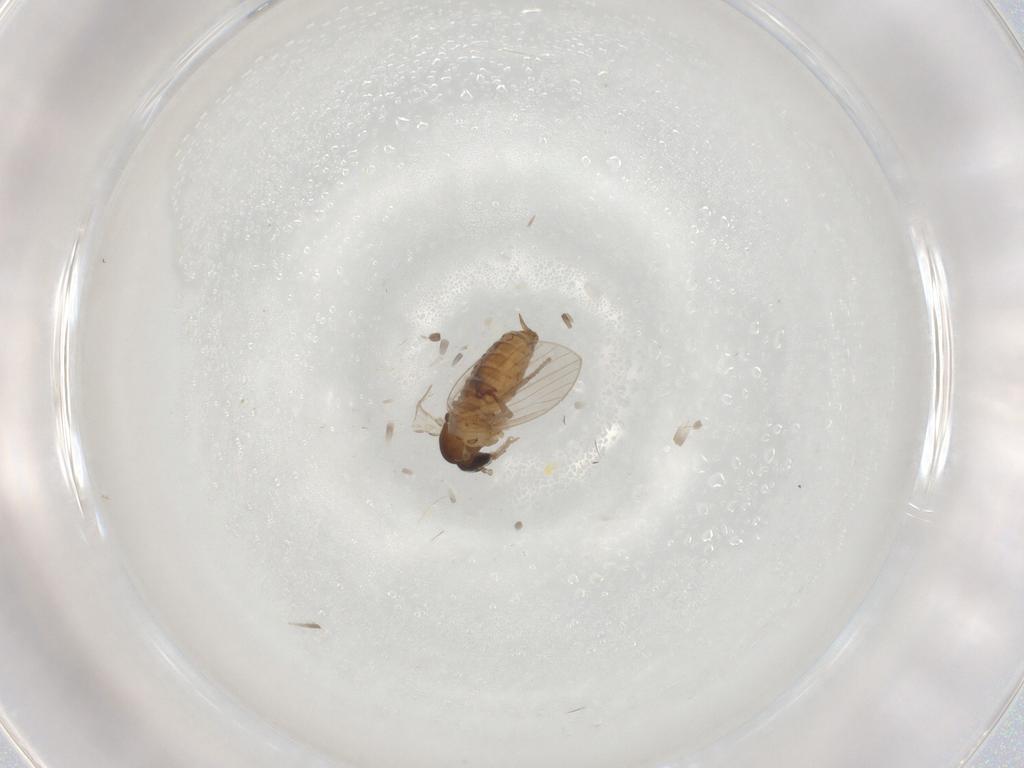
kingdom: Animalia
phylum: Arthropoda
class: Insecta
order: Diptera
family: Psychodidae
